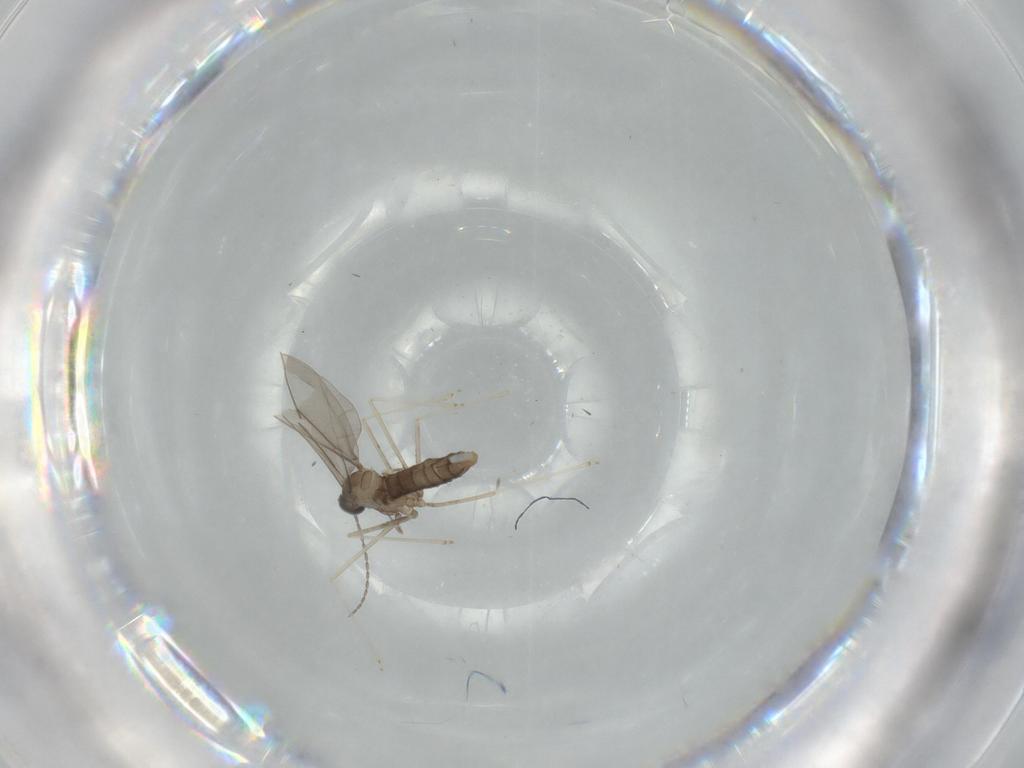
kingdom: Animalia
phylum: Arthropoda
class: Insecta
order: Diptera
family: Cecidomyiidae
